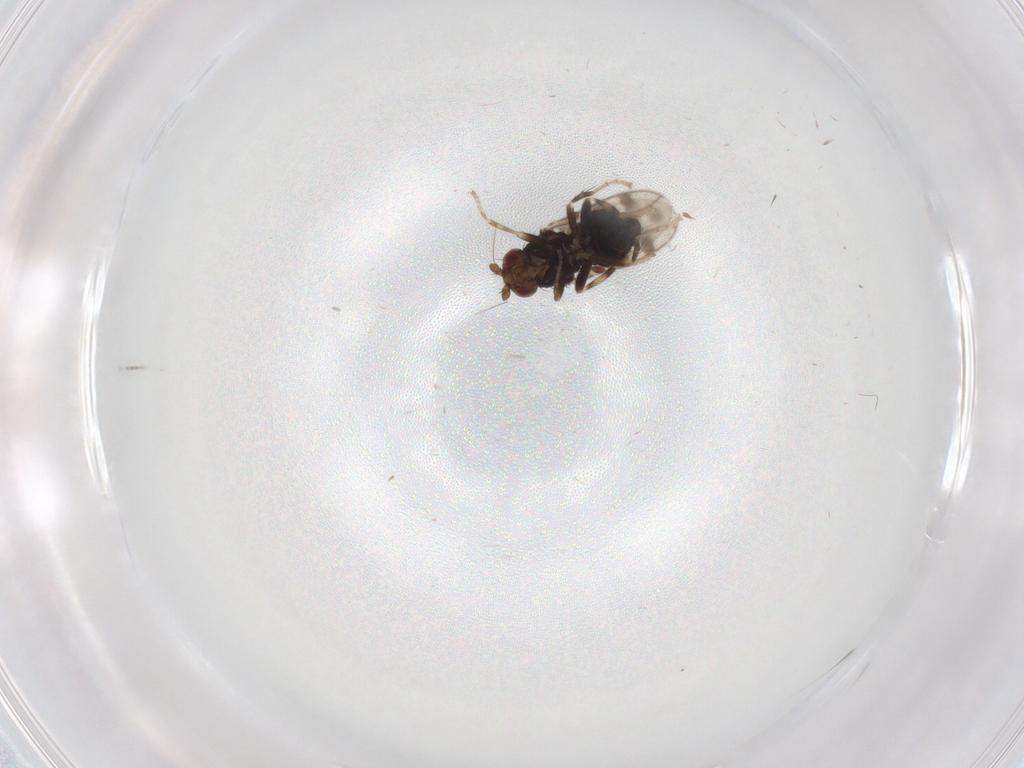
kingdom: Animalia
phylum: Arthropoda
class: Insecta
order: Diptera
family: Sphaeroceridae
